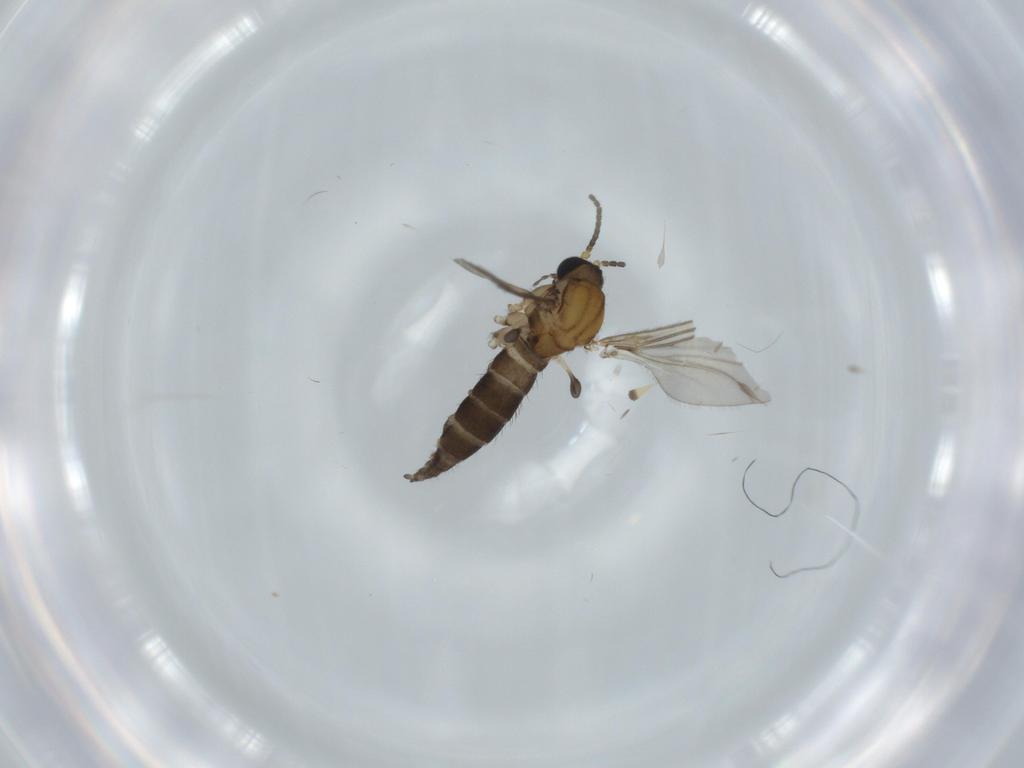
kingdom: Animalia
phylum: Arthropoda
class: Insecta
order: Diptera
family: Sciaridae
